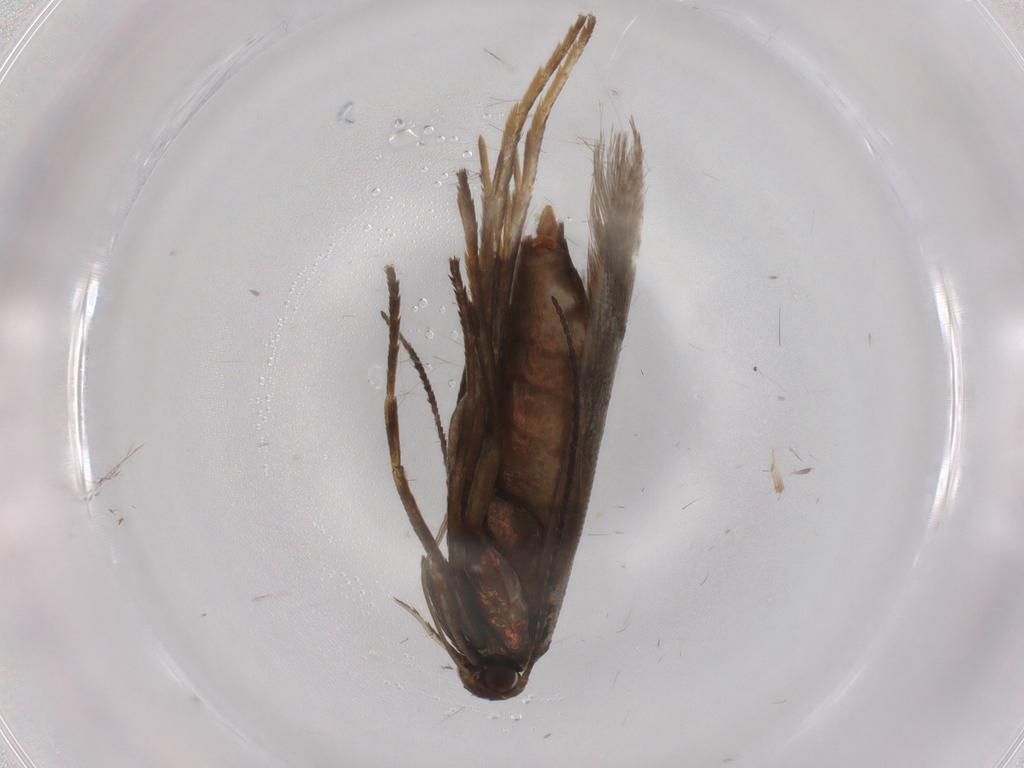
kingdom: Animalia
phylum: Arthropoda
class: Insecta
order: Lepidoptera
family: Argyresthiidae
